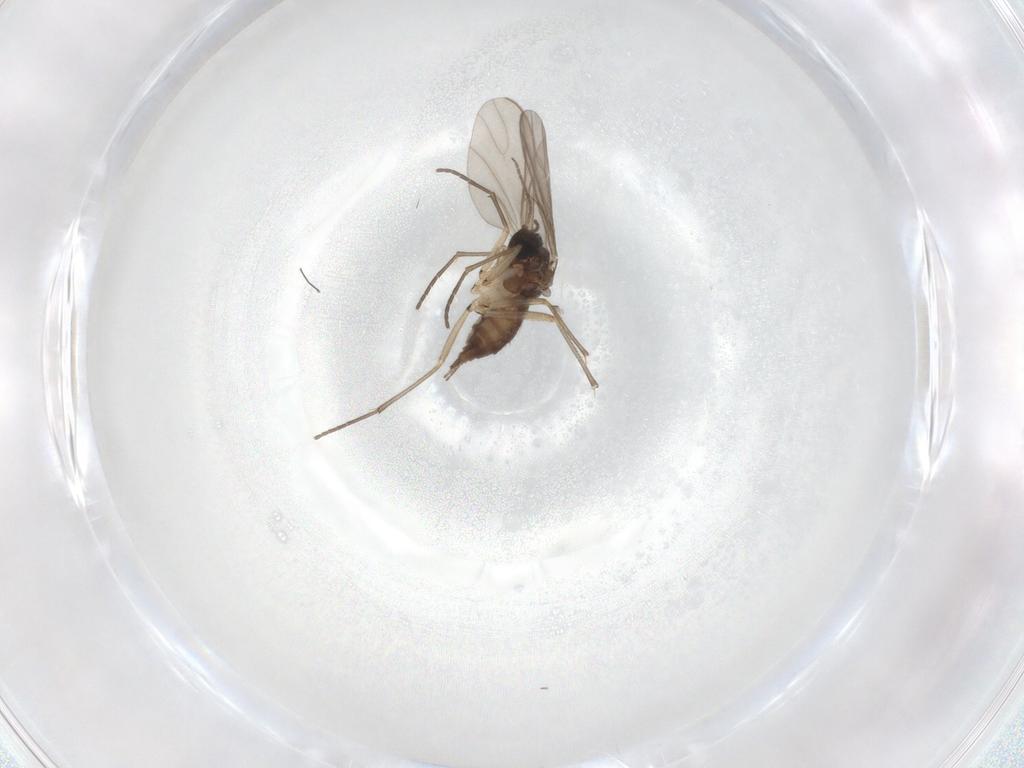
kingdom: Animalia
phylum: Arthropoda
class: Insecta
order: Diptera
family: Sciaridae
